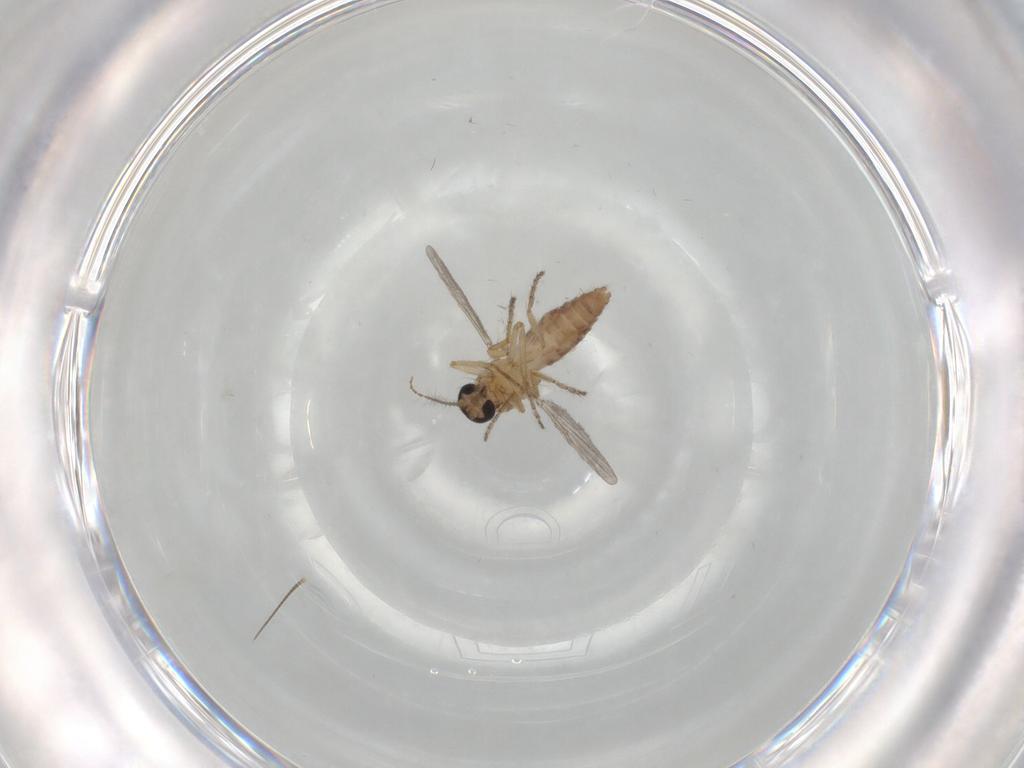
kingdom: Animalia
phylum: Arthropoda
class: Insecta
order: Diptera
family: Ceratopogonidae
